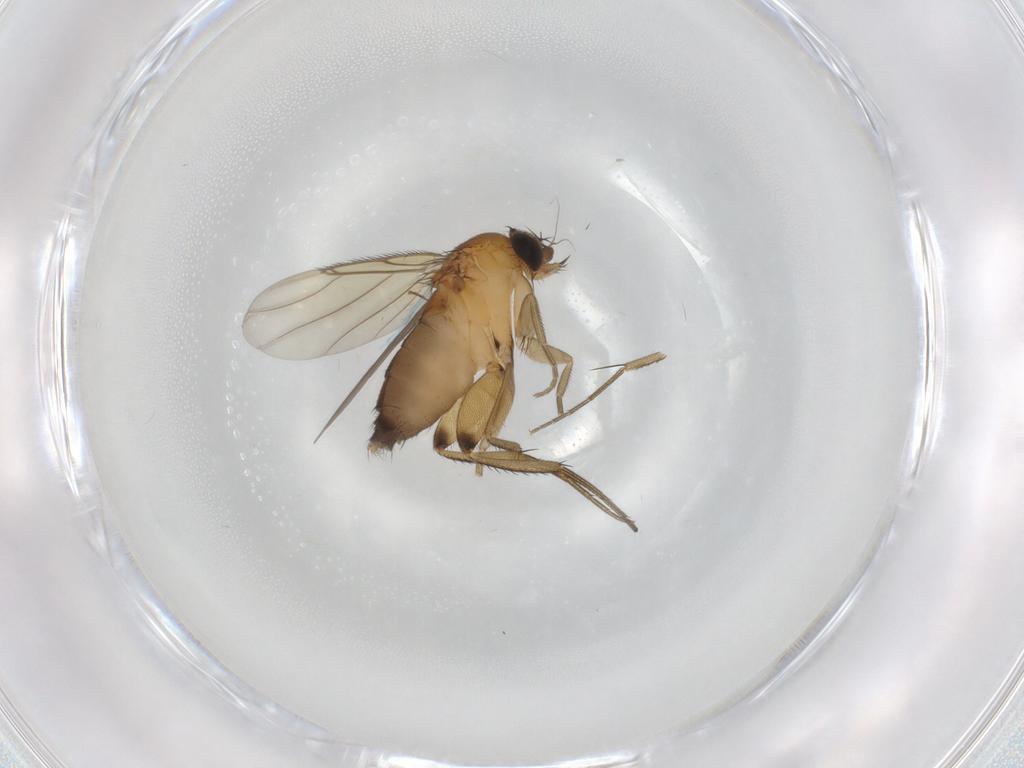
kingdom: Animalia
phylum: Arthropoda
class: Insecta
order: Diptera
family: Phoridae
